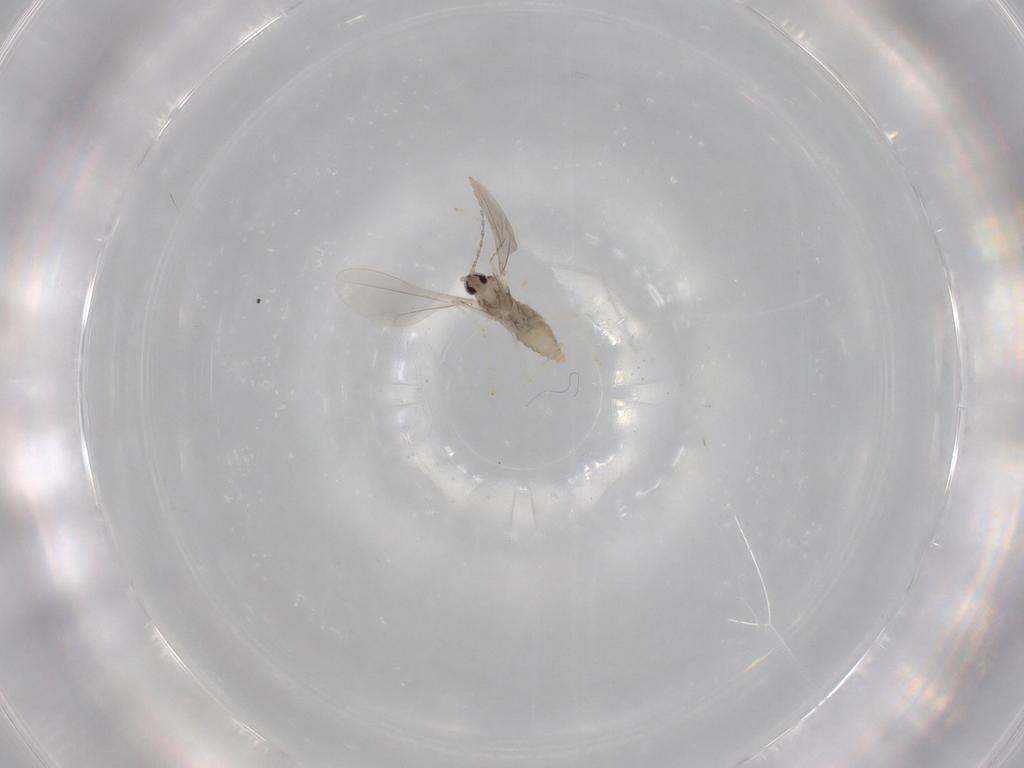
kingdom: Animalia
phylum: Arthropoda
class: Insecta
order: Diptera
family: Cecidomyiidae
